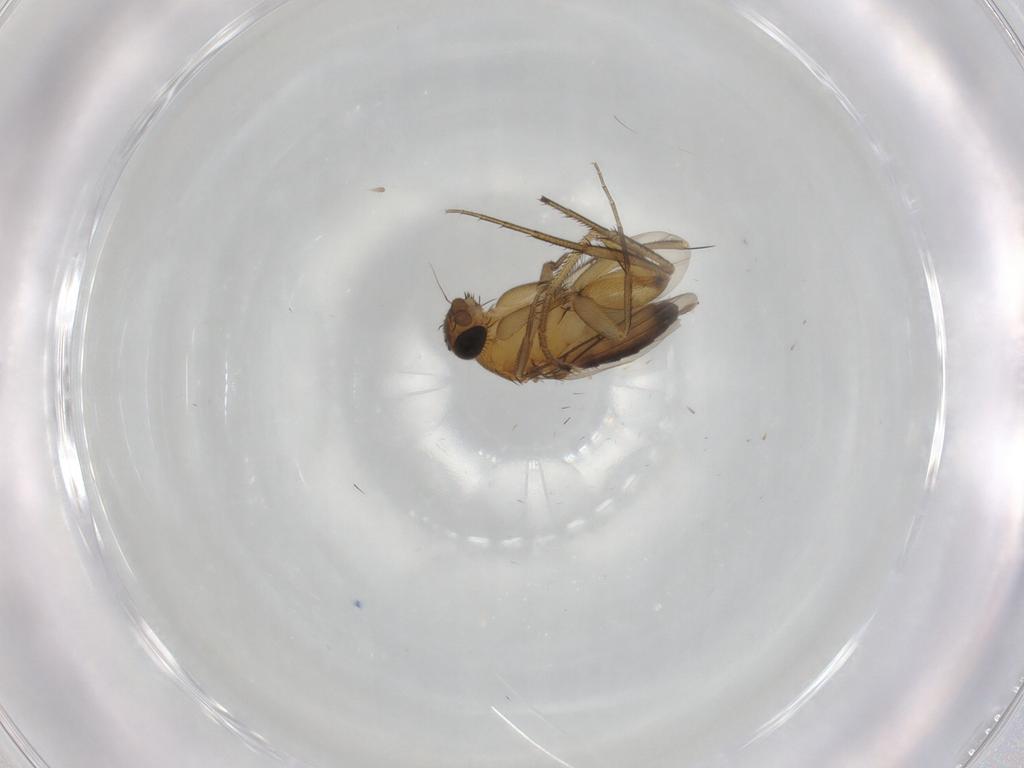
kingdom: Animalia
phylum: Arthropoda
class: Insecta
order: Diptera
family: Phoridae
